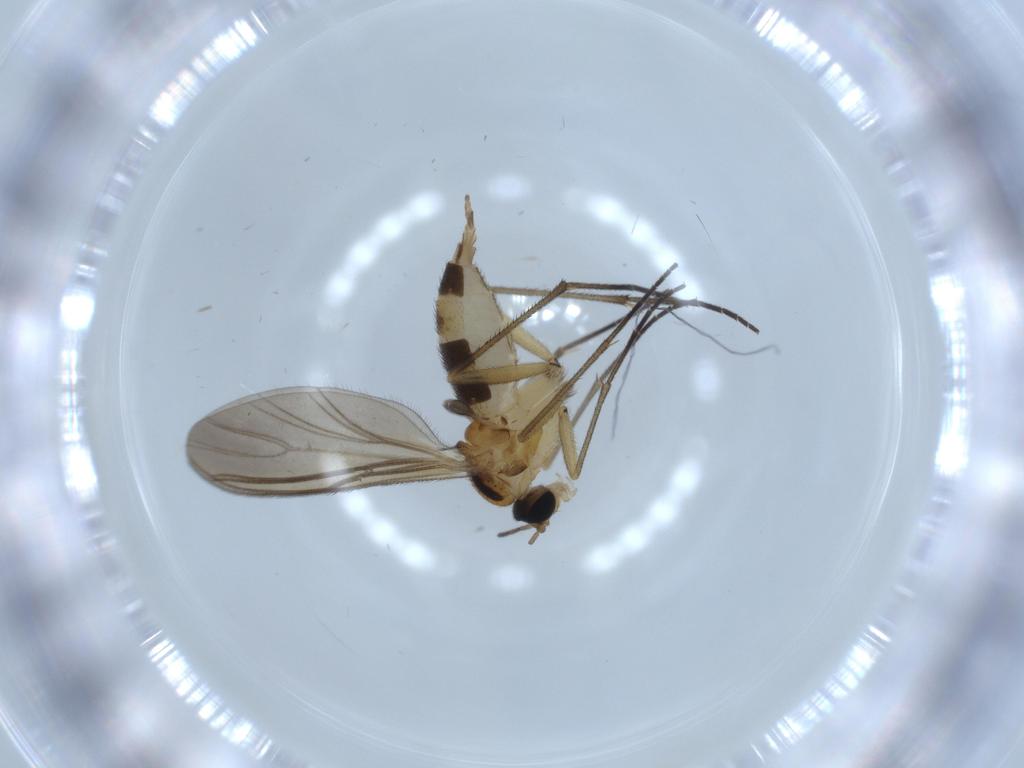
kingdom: Animalia
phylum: Arthropoda
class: Insecta
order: Diptera
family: Sciaridae
